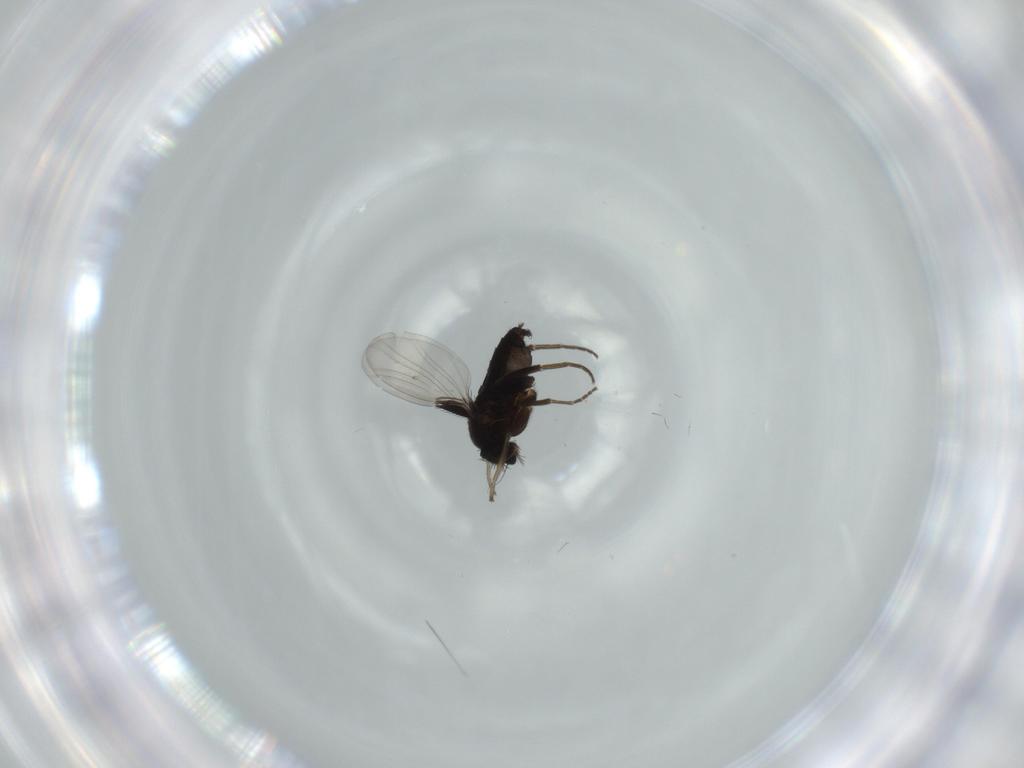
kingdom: Animalia
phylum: Arthropoda
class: Insecta
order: Diptera
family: Phoridae
